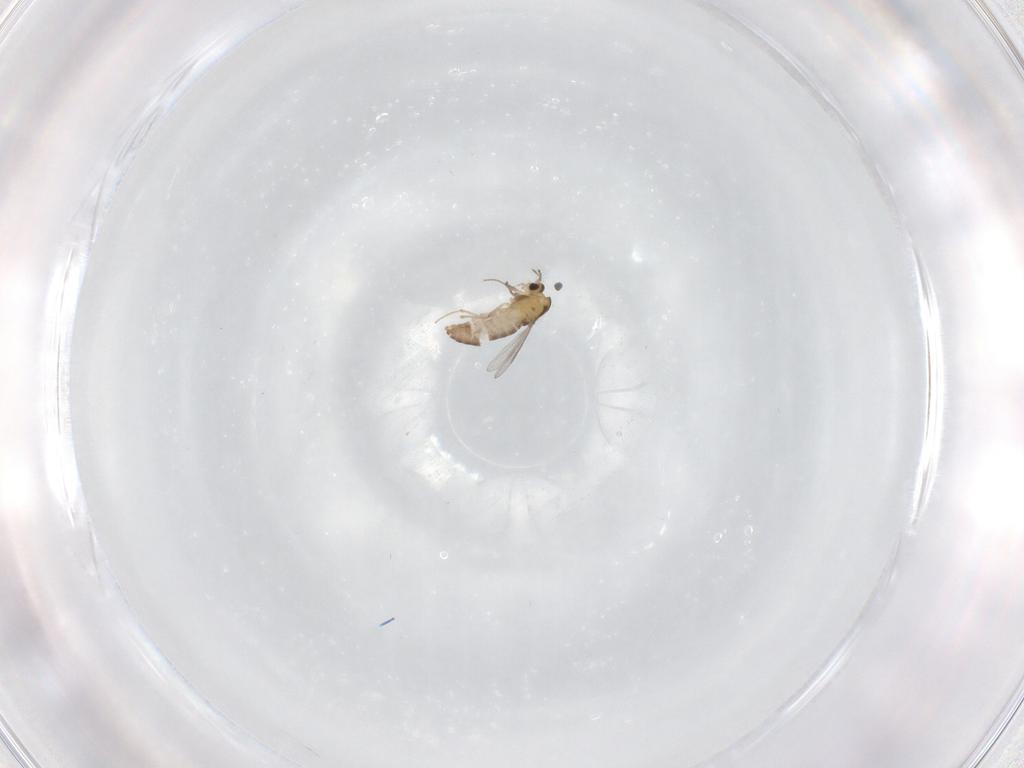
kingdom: Animalia
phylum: Arthropoda
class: Insecta
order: Diptera
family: Chironomidae
